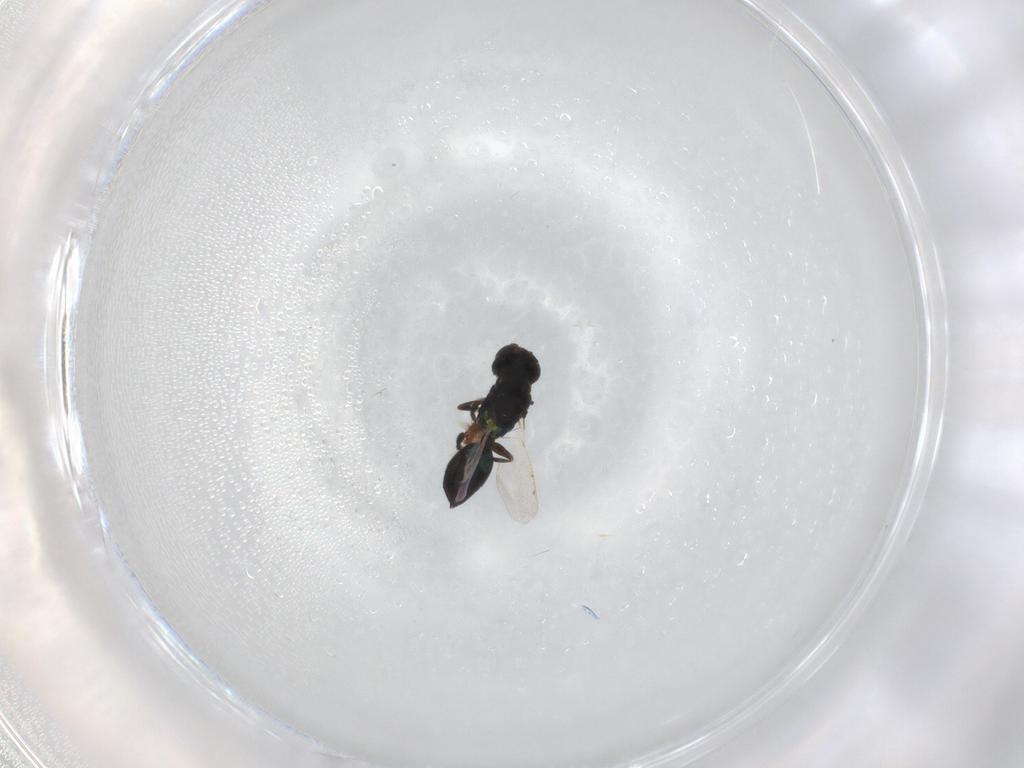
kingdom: Animalia
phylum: Arthropoda
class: Insecta
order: Hymenoptera
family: Eulophidae
